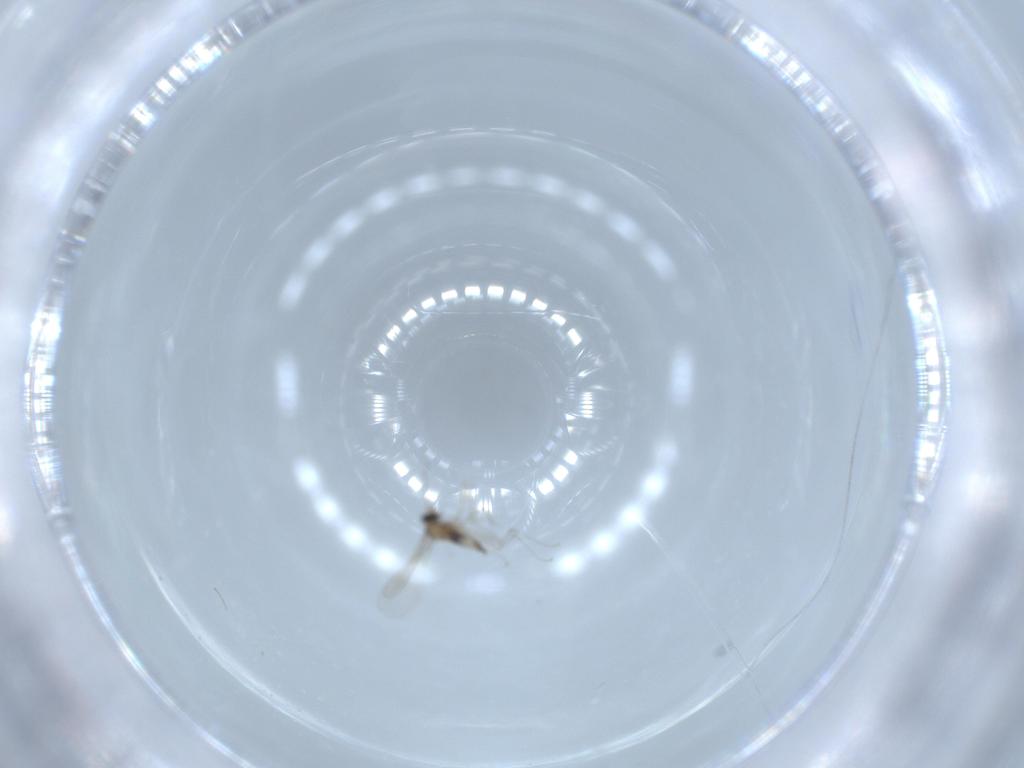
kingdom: Animalia
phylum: Arthropoda
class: Insecta
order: Diptera
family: Cecidomyiidae
